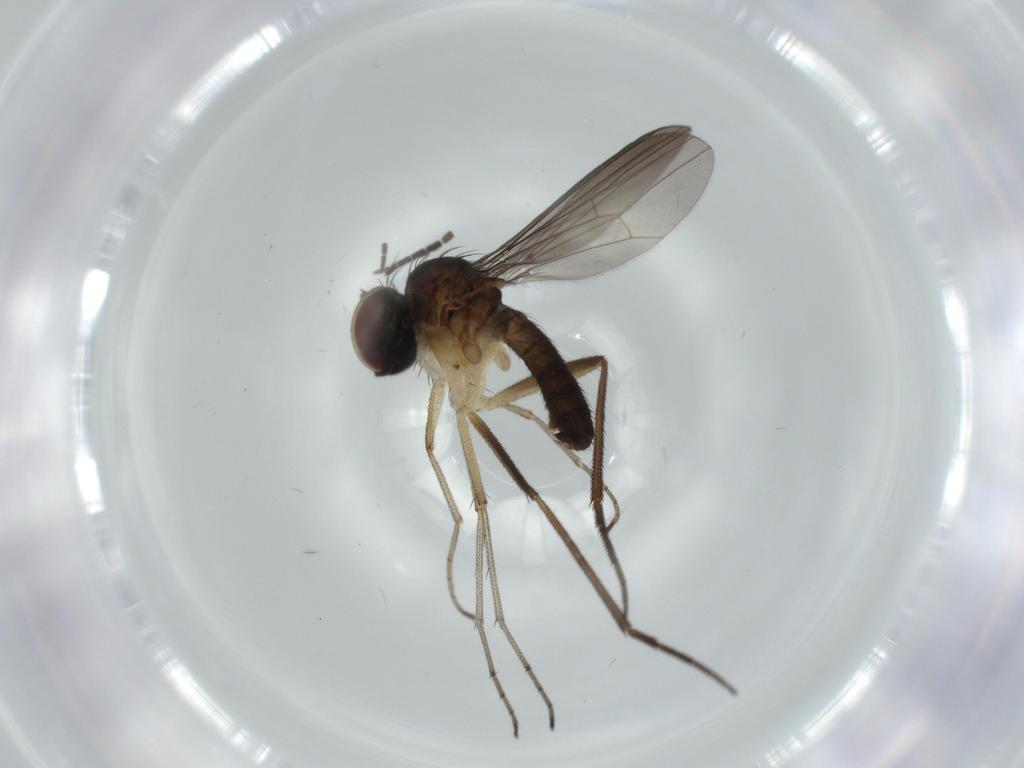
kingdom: Animalia
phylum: Arthropoda
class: Insecta
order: Diptera
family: Sciaridae
